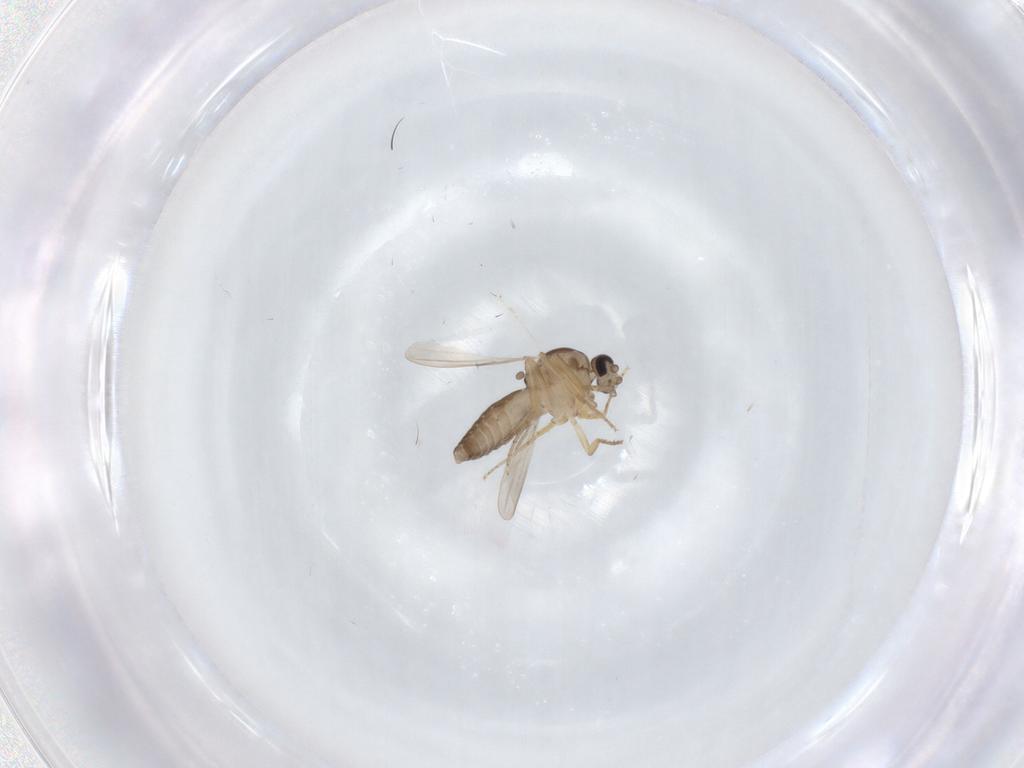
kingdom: Animalia
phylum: Arthropoda
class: Insecta
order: Diptera
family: Ceratopogonidae
